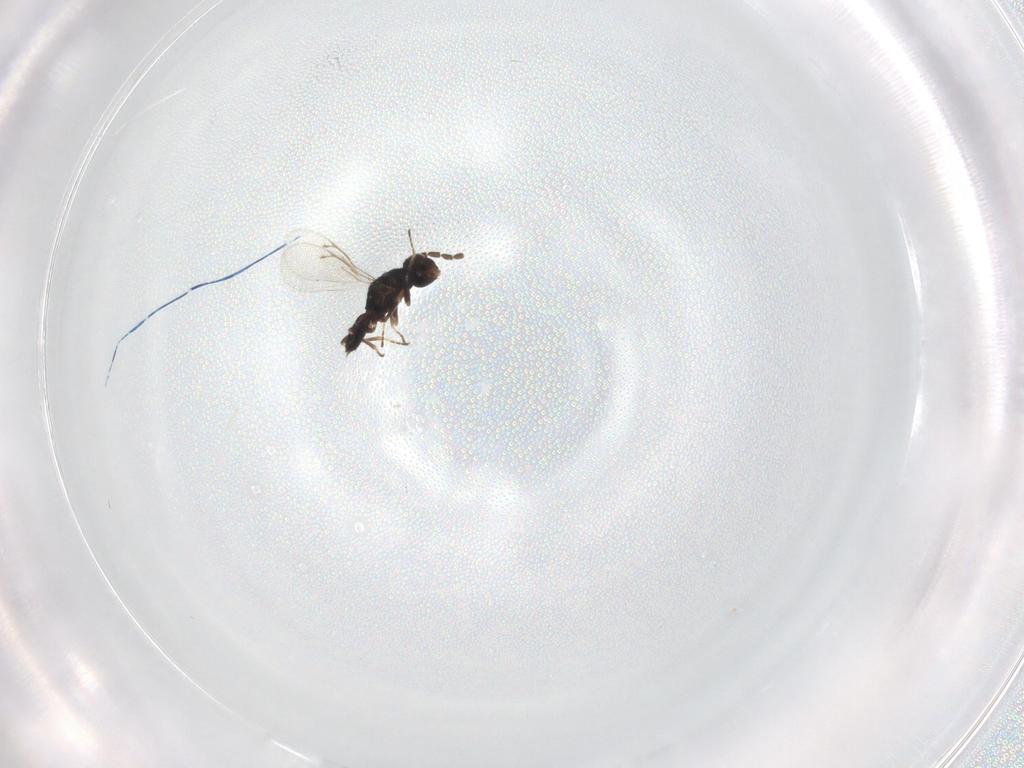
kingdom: Animalia
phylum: Arthropoda
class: Insecta
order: Hymenoptera
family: Eulophidae
